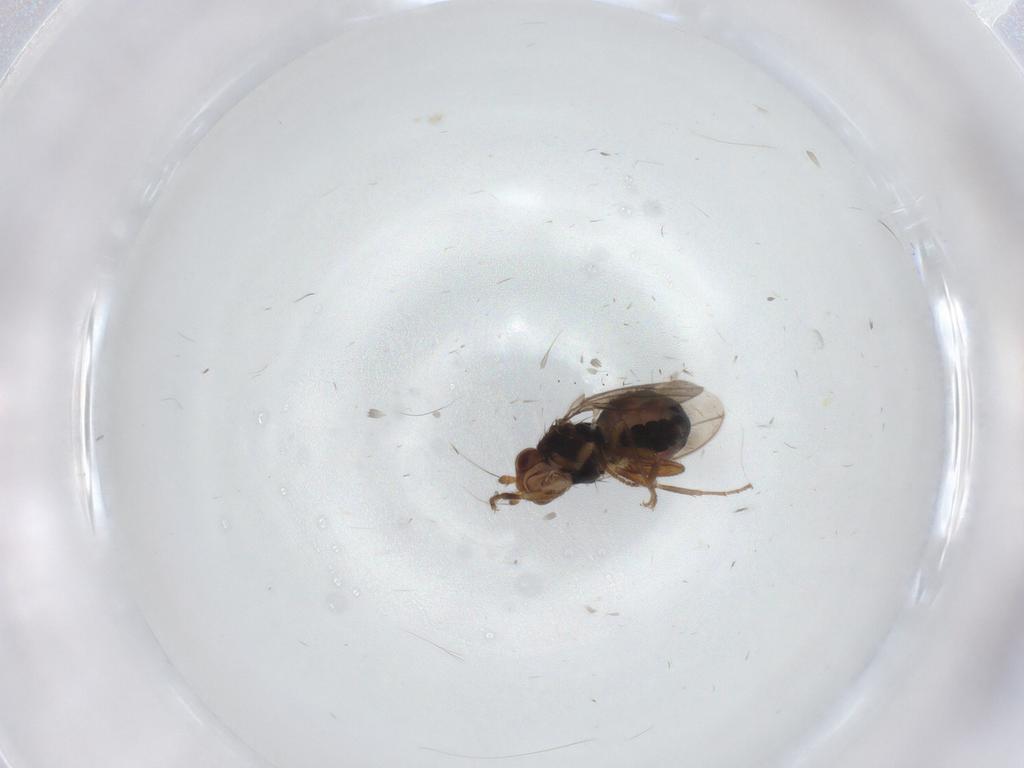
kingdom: Animalia
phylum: Arthropoda
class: Insecta
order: Diptera
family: Sphaeroceridae
